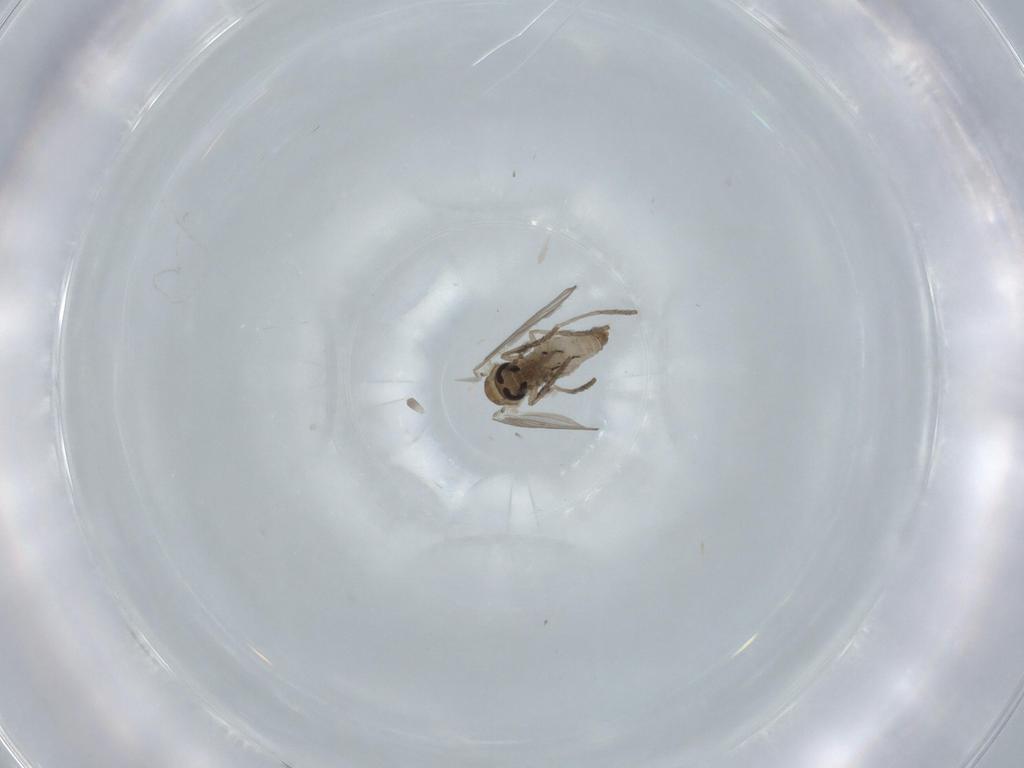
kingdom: Animalia
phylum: Arthropoda
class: Insecta
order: Diptera
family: Psychodidae
